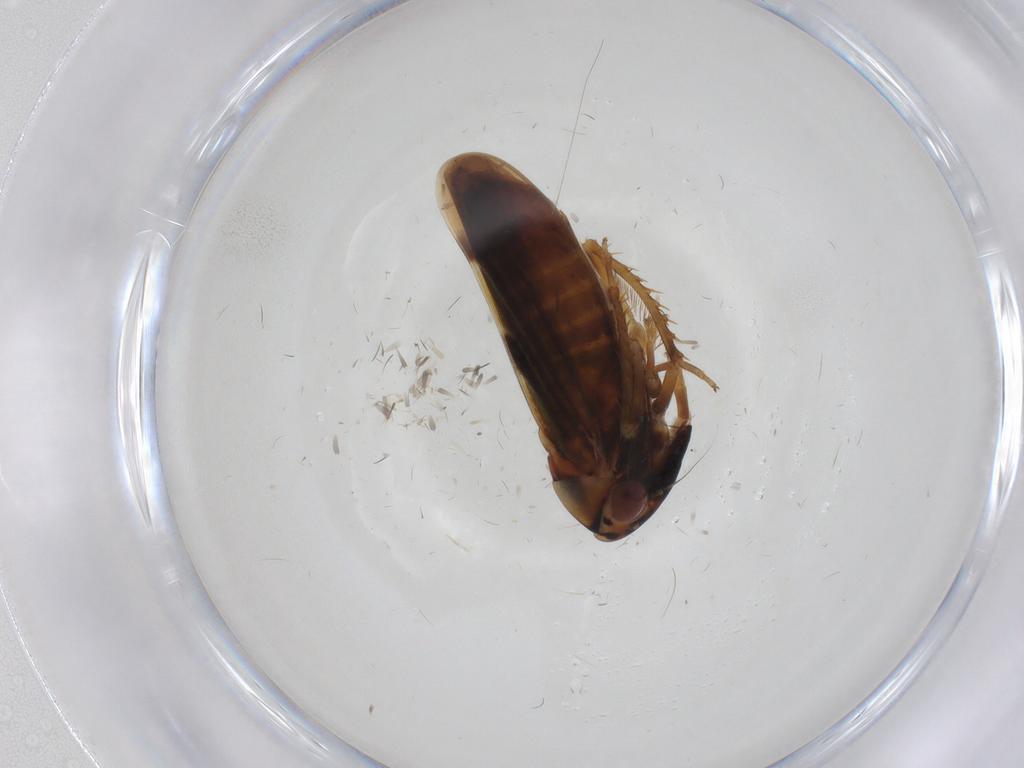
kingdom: Animalia
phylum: Arthropoda
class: Insecta
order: Hemiptera
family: Cicadellidae
